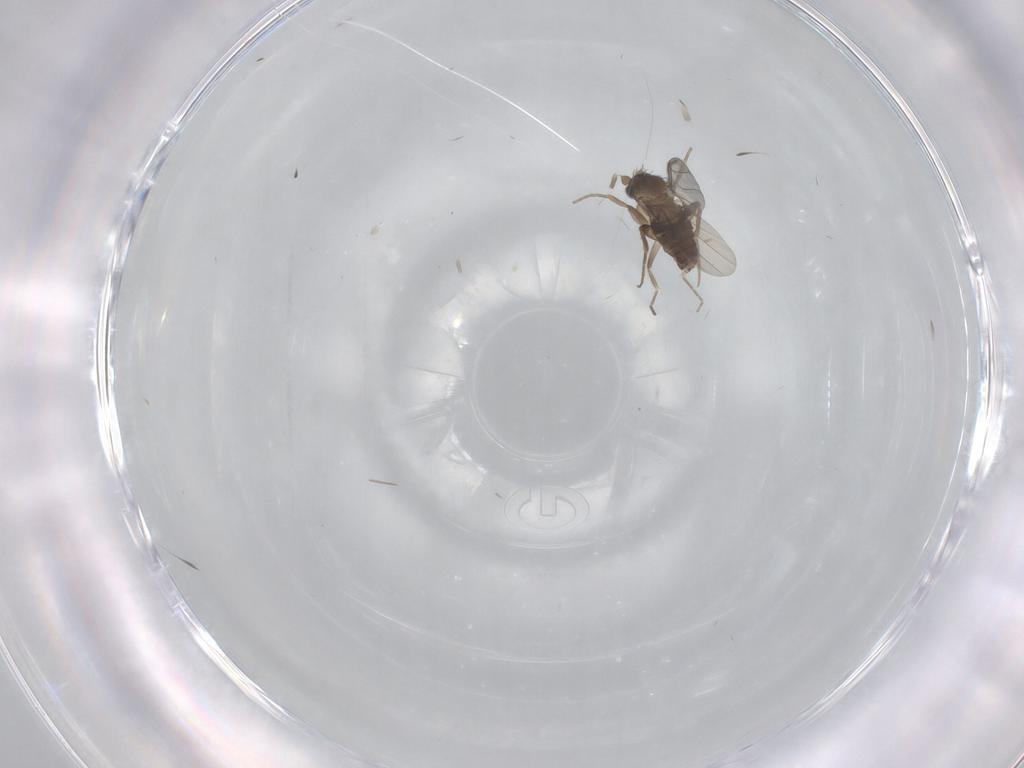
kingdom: Animalia
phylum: Arthropoda
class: Insecta
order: Diptera
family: Phoridae
